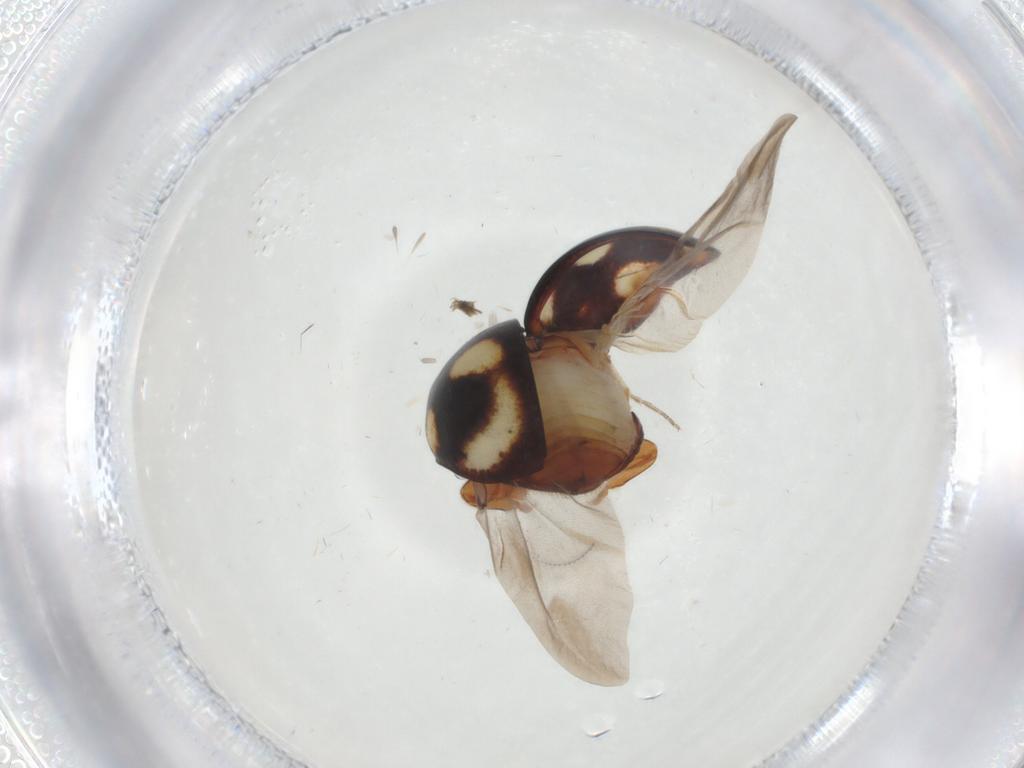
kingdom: Animalia
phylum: Arthropoda
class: Insecta
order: Coleoptera
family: Coccinellidae
